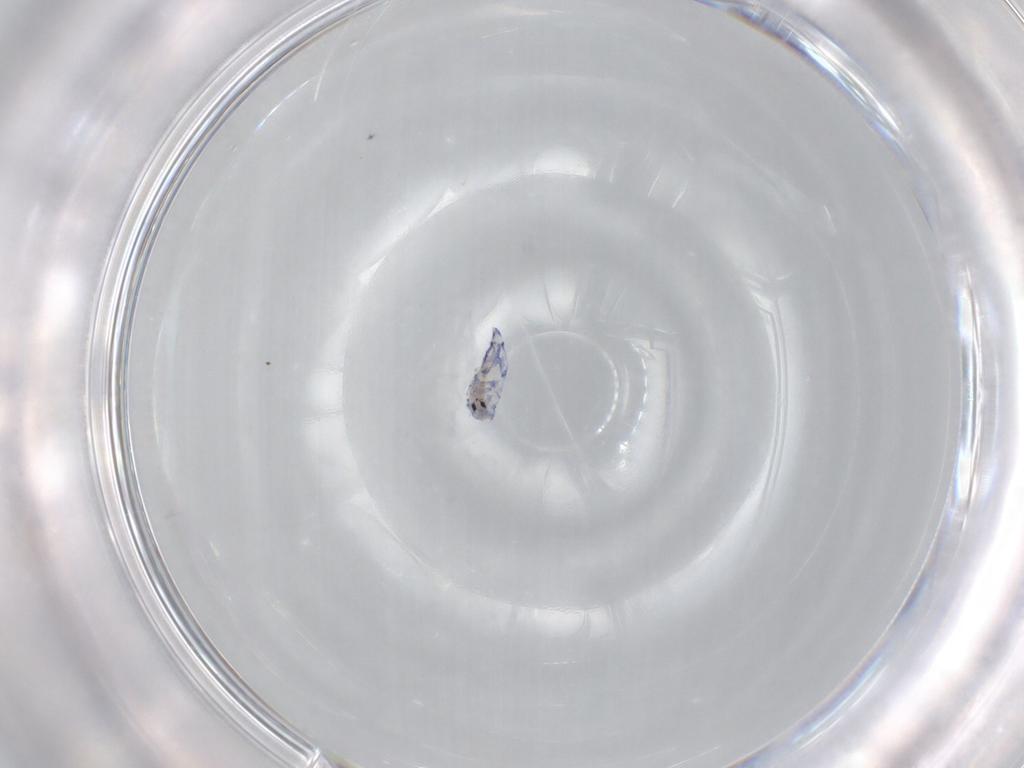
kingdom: Animalia
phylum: Arthropoda
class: Collembola
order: Entomobryomorpha
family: Entomobryidae
